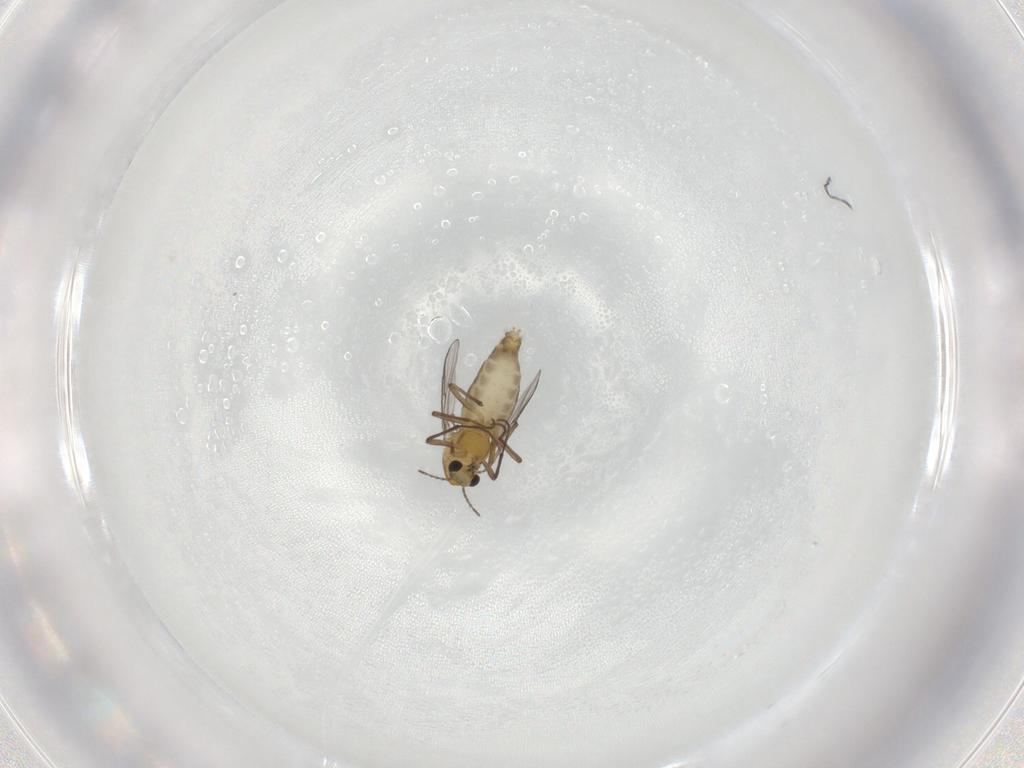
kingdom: Animalia
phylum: Arthropoda
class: Insecta
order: Diptera
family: Chironomidae
